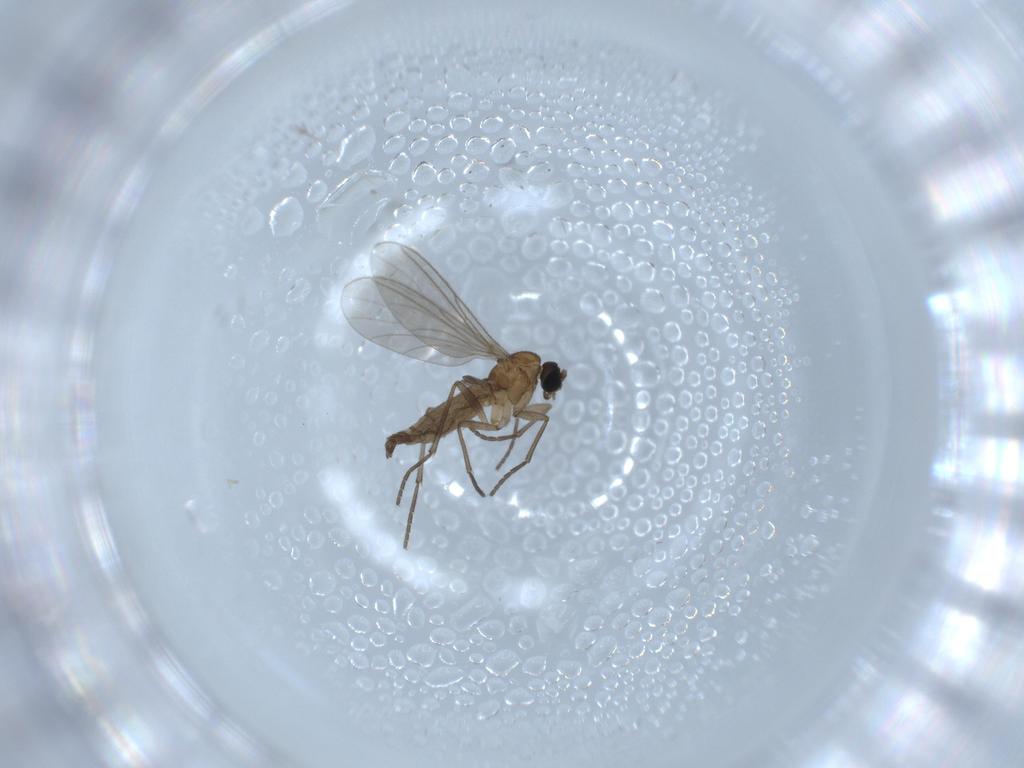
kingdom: Animalia
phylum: Arthropoda
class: Insecta
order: Diptera
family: Sciaridae
